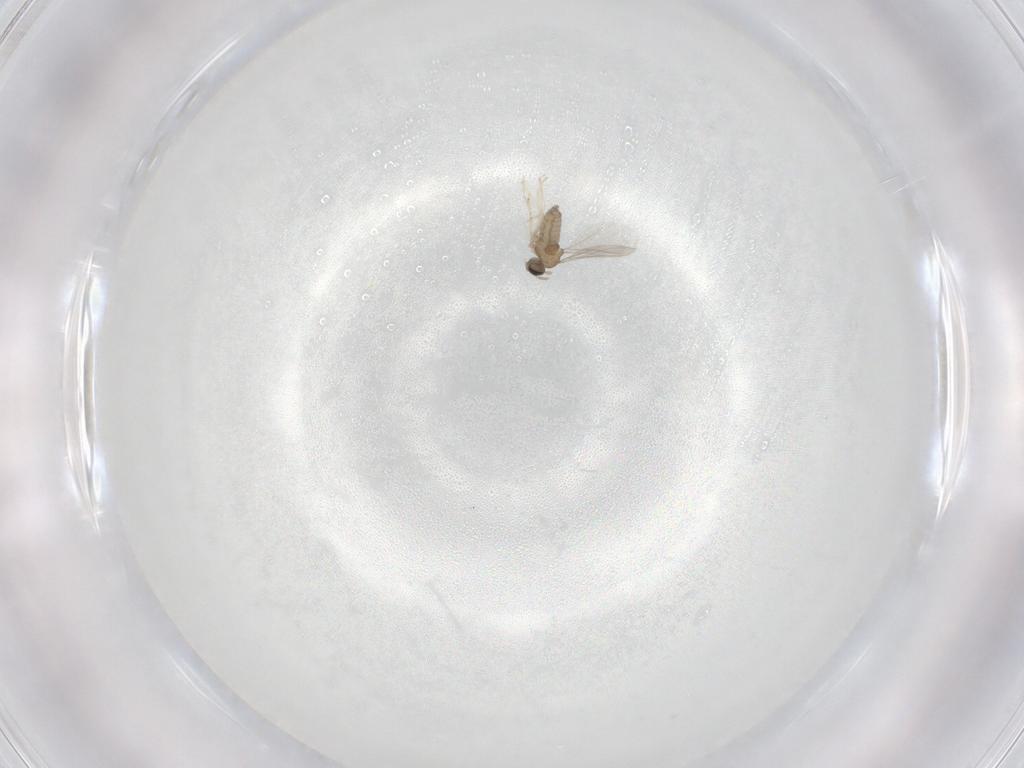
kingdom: Animalia
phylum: Arthropoda
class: Insecta
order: Diptera
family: Cecidomyiidae
